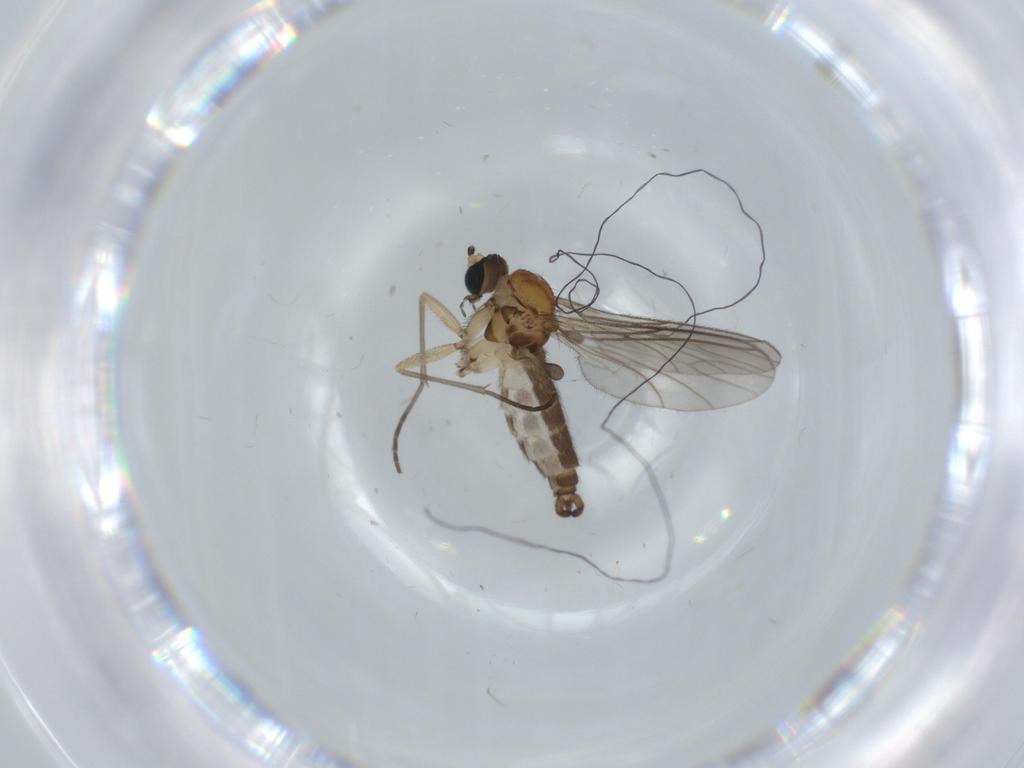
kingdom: Animalia
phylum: Arthropoda
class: Insecta
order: Diptera
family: Sciaridae
